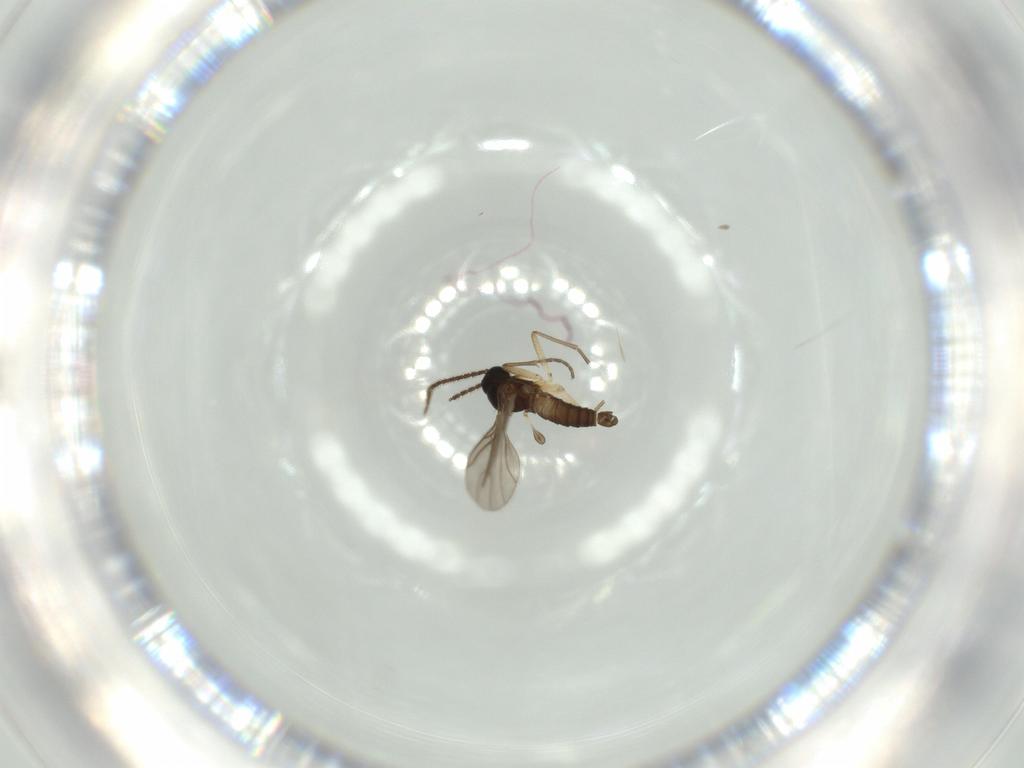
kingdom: Animalia
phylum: Arthropoda
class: Insecta
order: Diptera
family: Sciaridae
